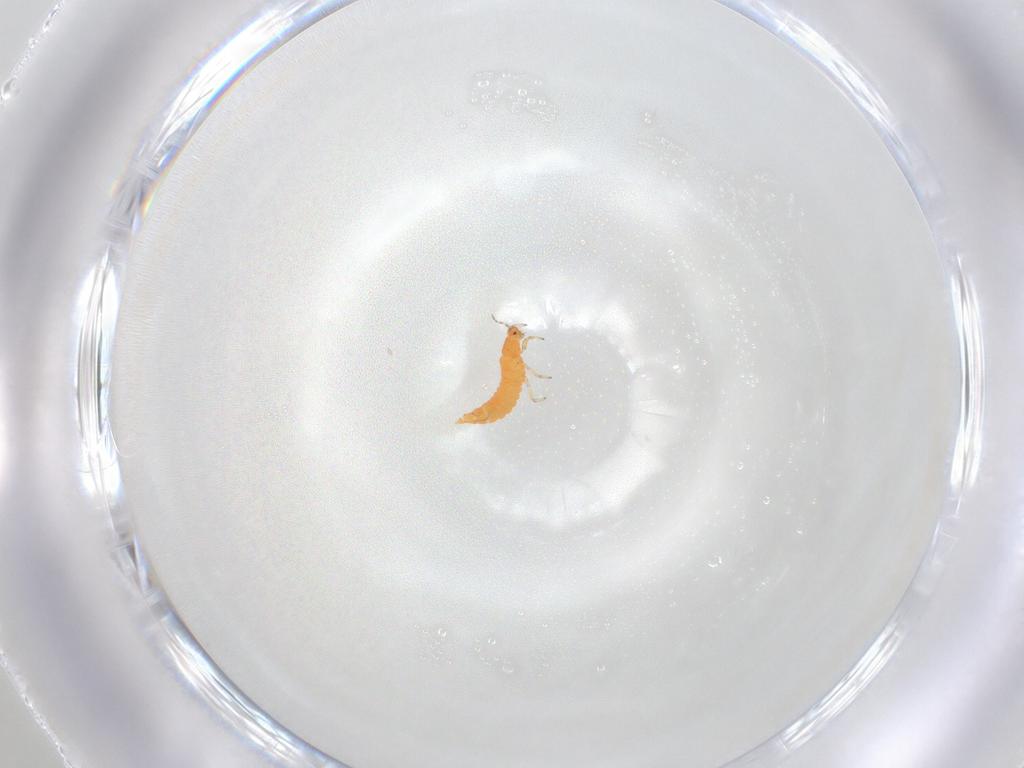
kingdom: Animalia
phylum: Arthropoda
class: Insecta
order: Thysanoptera
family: Aeolothripidae
